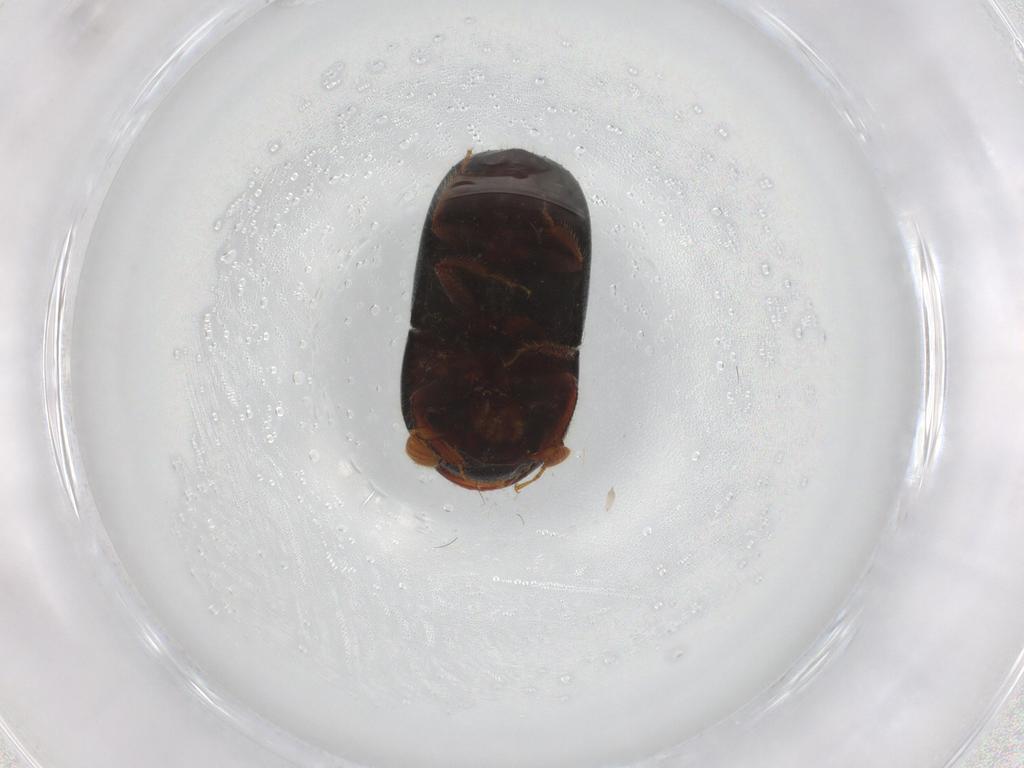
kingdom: Animalia
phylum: Arthropoda
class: Insecta
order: Coleoptera
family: Curculionidae
